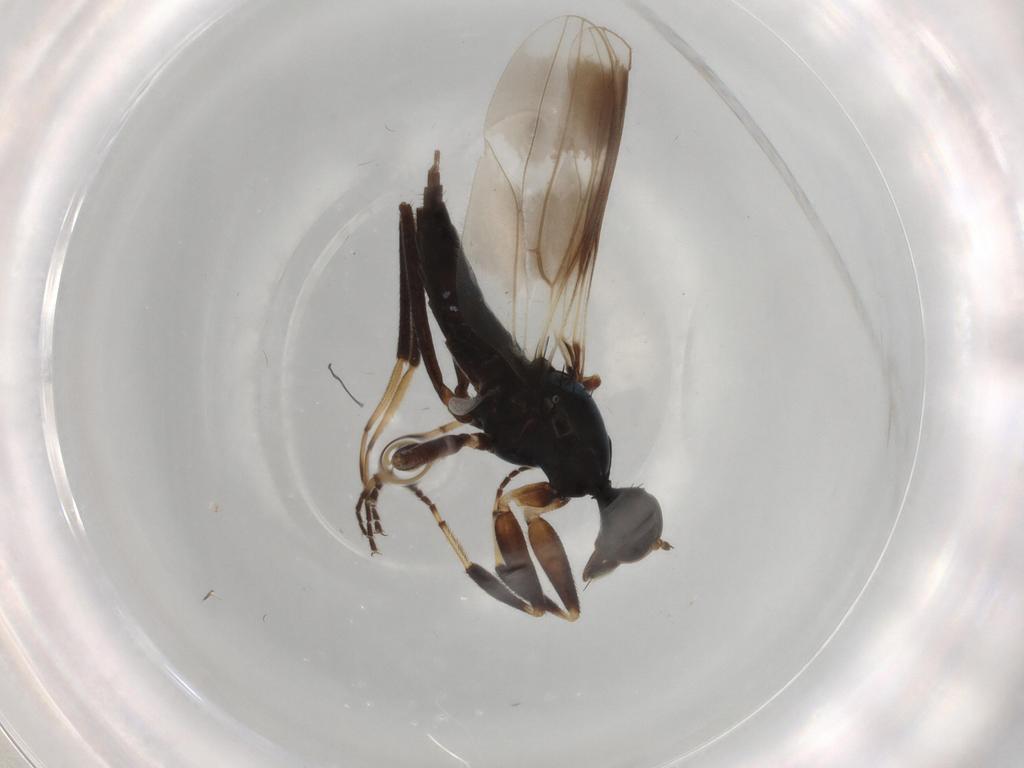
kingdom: Animalia
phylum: Arthropoda
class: Insecta
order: Diptera
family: Hybotidae
